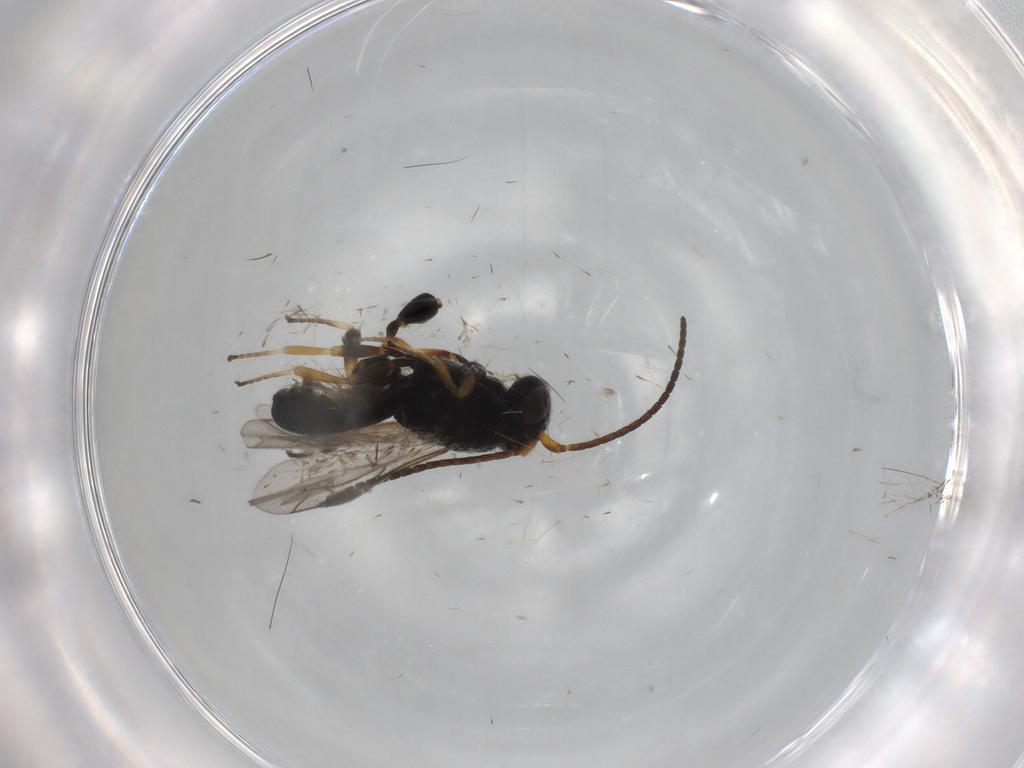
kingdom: Animalia
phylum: Arthropoda
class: Insecta
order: Hymenoptera
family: Braconidae
